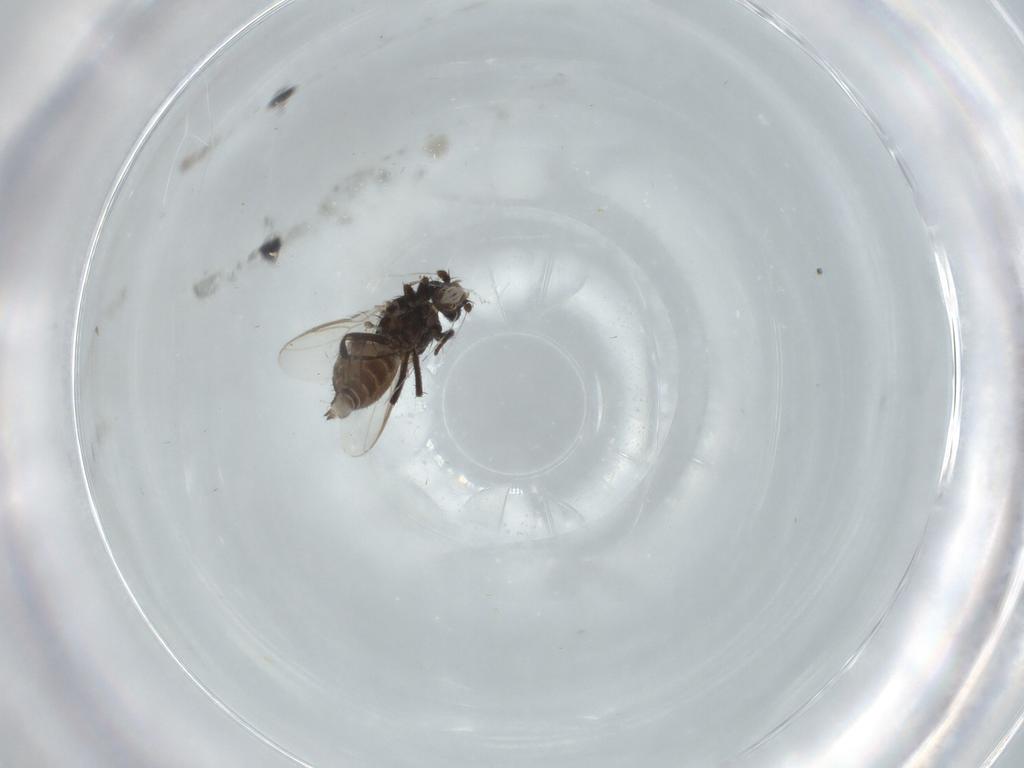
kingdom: Animalia
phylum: Arthropoda
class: Insecta
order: Diptera
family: Sphaeroceridae
